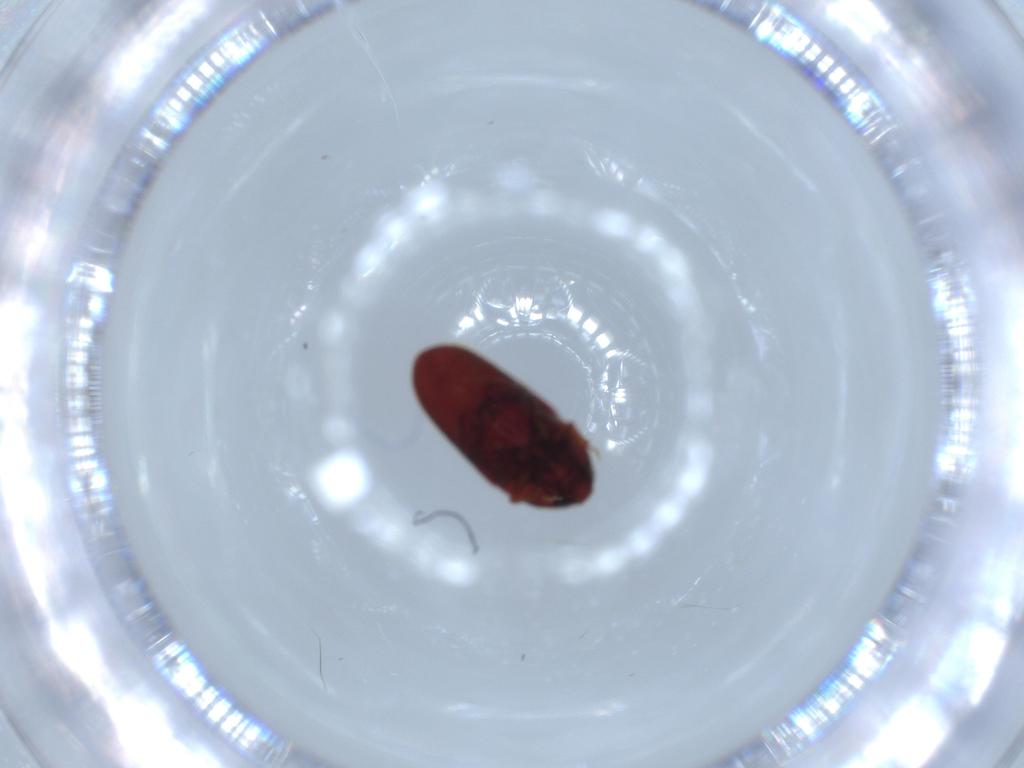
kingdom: Animalia
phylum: Arthropoda
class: Insecta
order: Coleoptera
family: Throscidae
